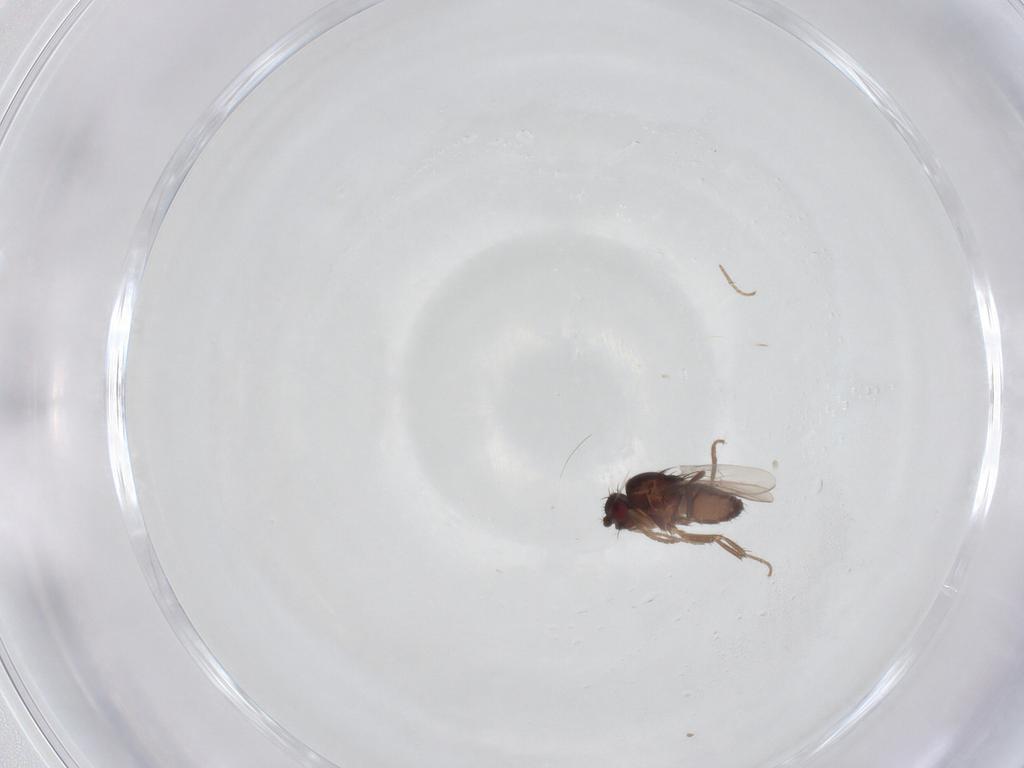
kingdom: Animalia
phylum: Arthropoda
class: Insecta
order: Diptera
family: Sphaeroceridae
